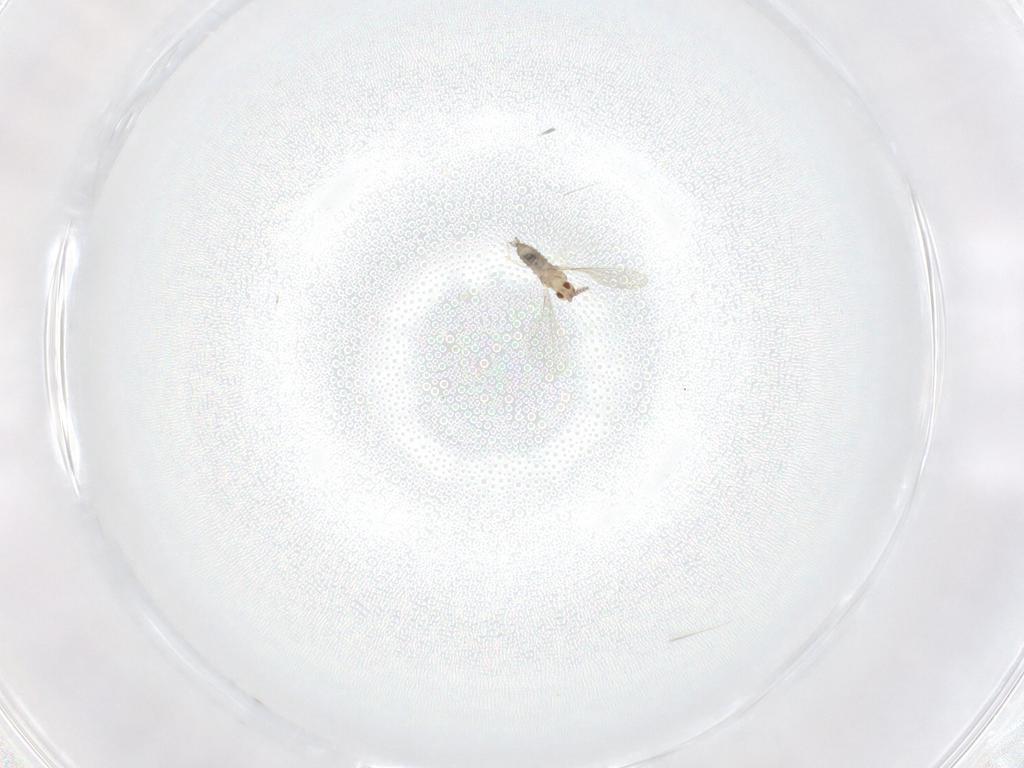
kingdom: Animalia
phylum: Arthropoda
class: Insecta
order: Diptera
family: Cecidomyiidae
